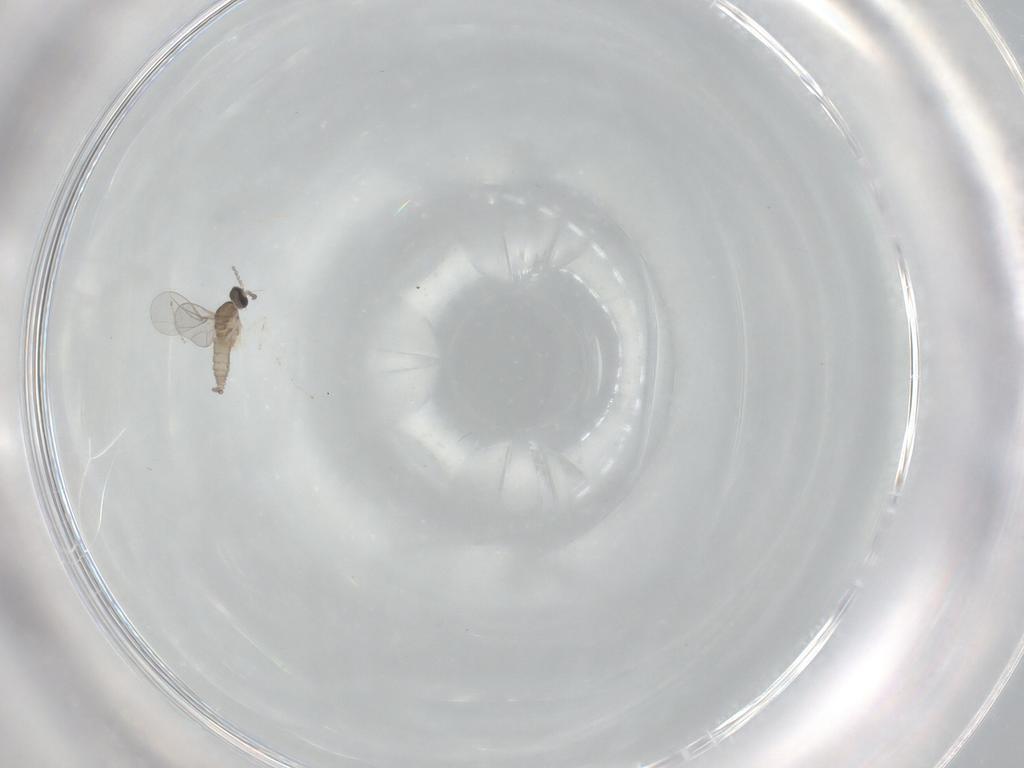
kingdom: Animalia
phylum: Arthropoda
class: Insecta
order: Diptera
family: Cecidomyiidae
